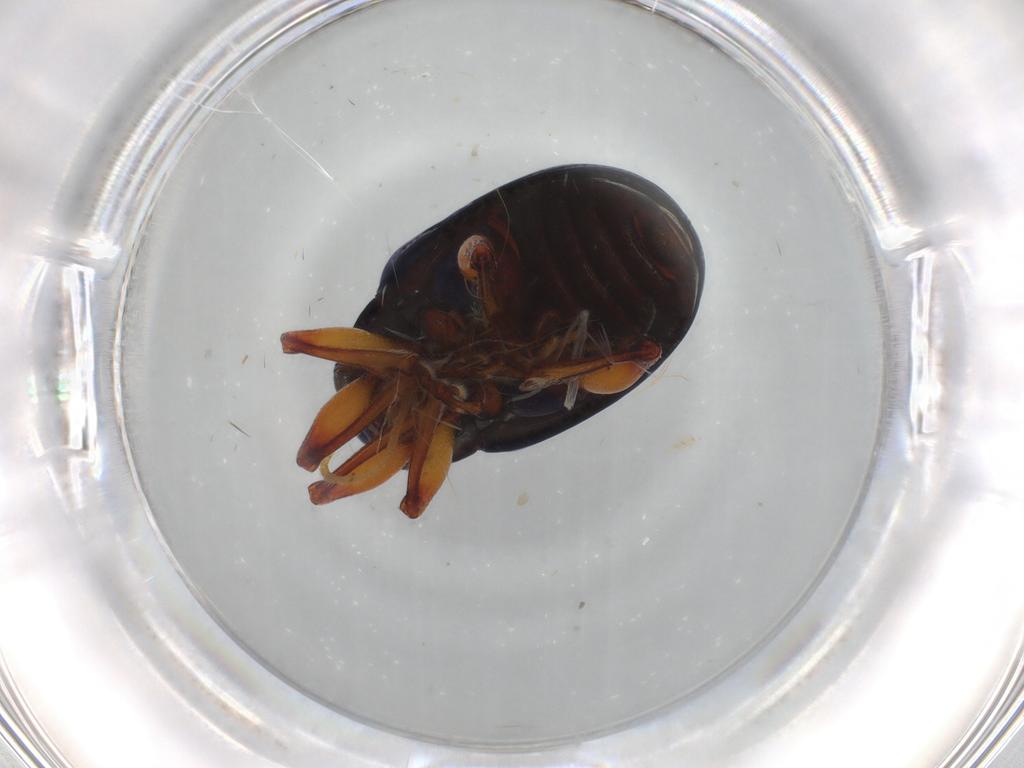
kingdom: Animalia
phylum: Arthropoda
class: Insecta
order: Coleoptera
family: Chrysomelidae
